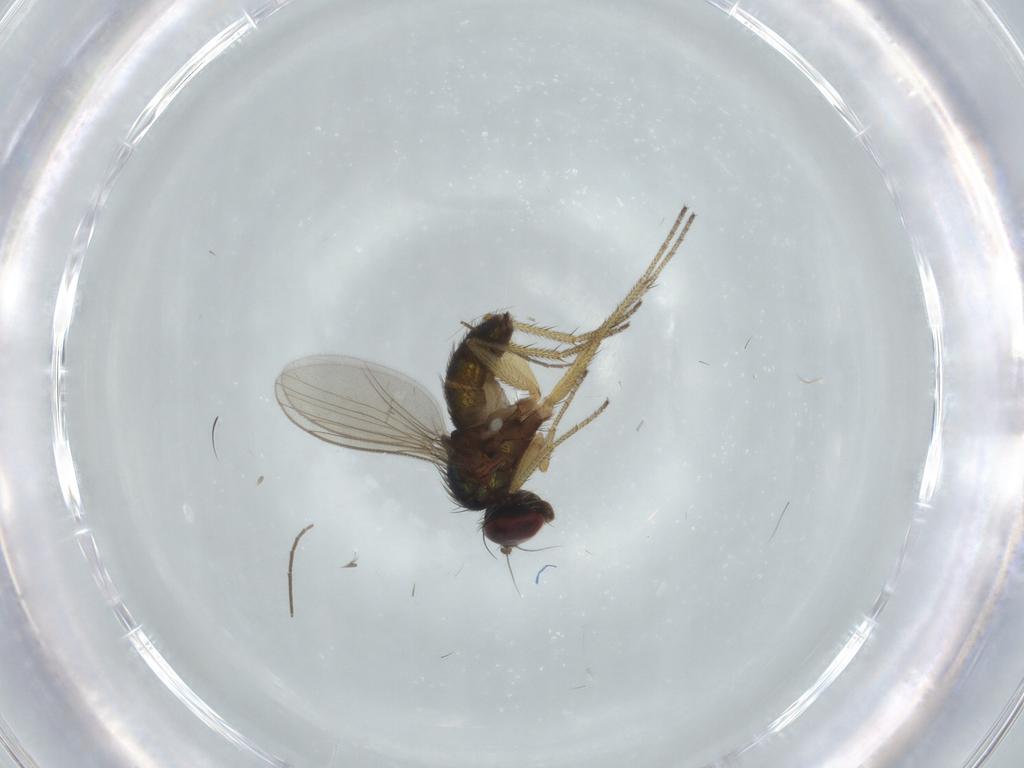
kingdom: Animalia
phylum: Arthropoda
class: Insecta
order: Diptera
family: Dolichopodidae
